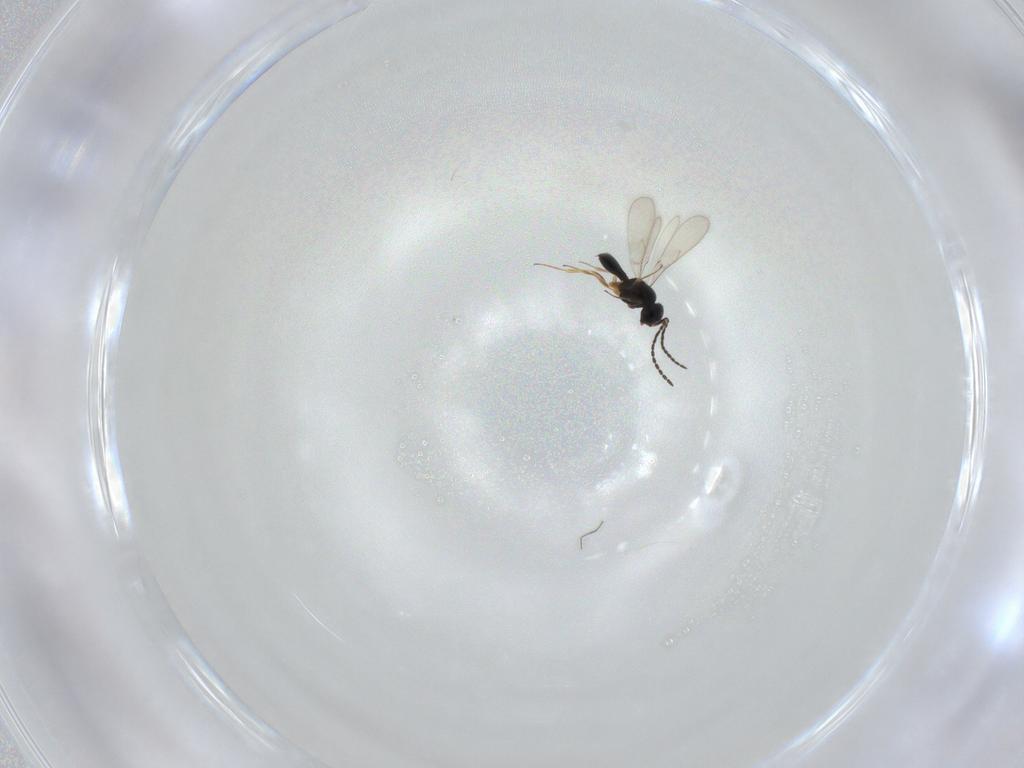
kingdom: Animalia
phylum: Arthropoda
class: Insecta
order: Hymenoptera
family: Encyrtidae
